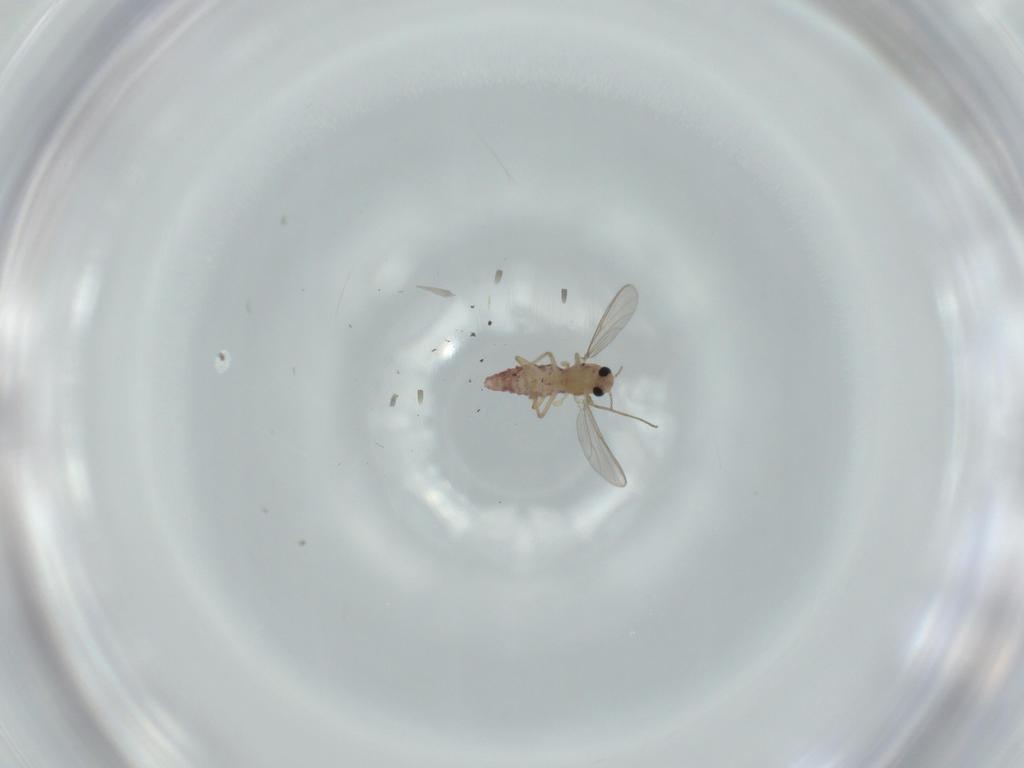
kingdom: Animalia
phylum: Arthropoda
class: Insecta
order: Diptera
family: Chironomidae
